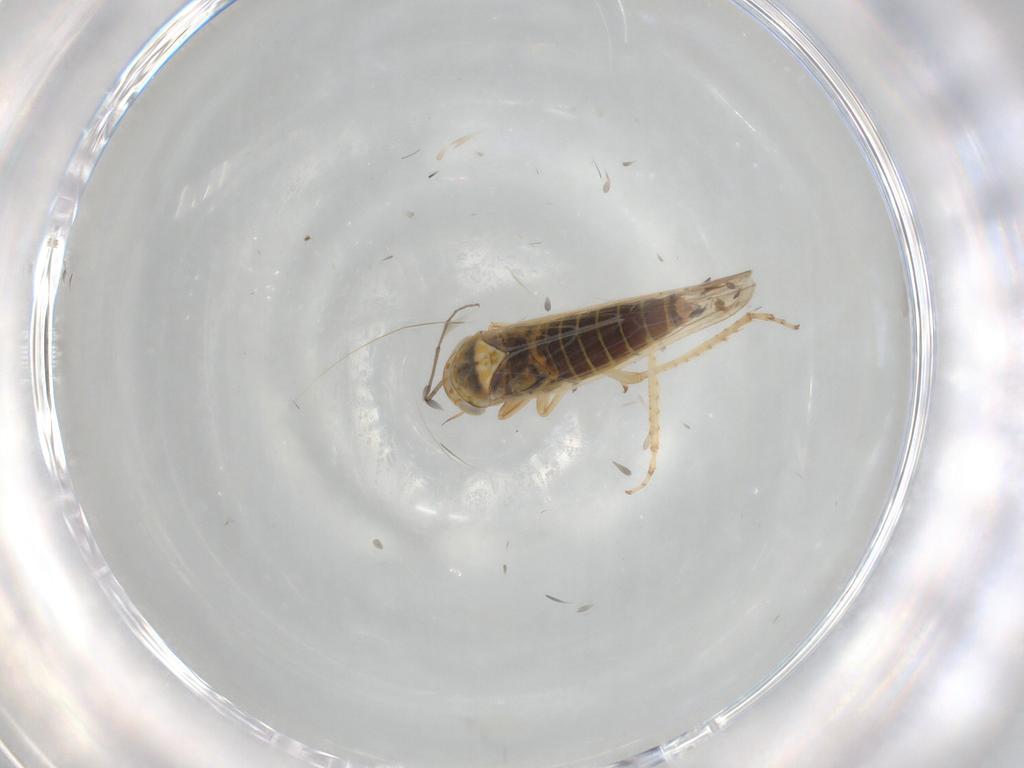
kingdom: Animalia
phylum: Arthropoda
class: Insecta
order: Hemiptera
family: Cicadellidae
